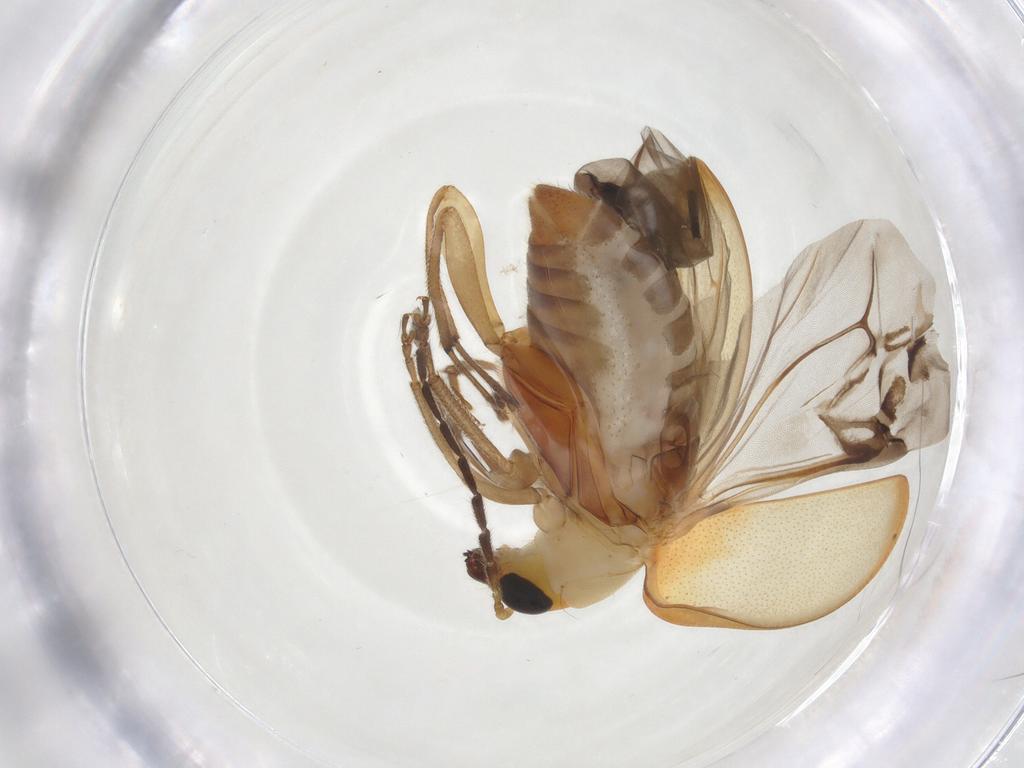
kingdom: Animalia
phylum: Arthropoda
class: Insecta
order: Coleoptera
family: Chrysomelidae
